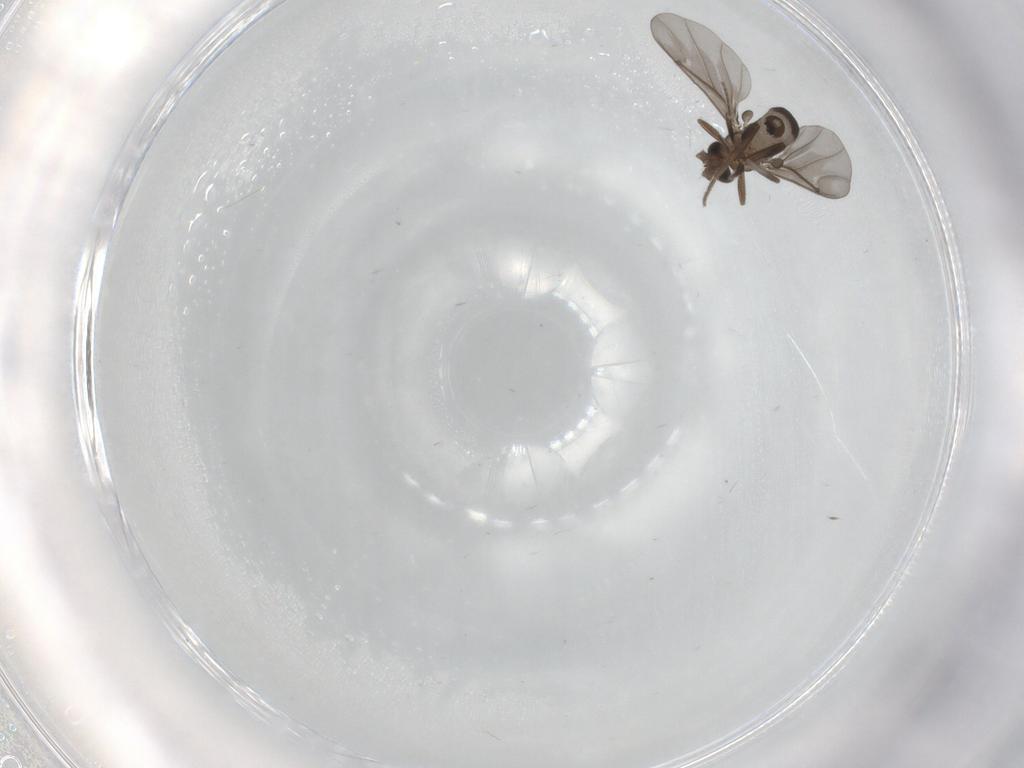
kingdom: Animalia
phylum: Arthropoda
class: Insecta
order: Diptera
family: Phoridae
